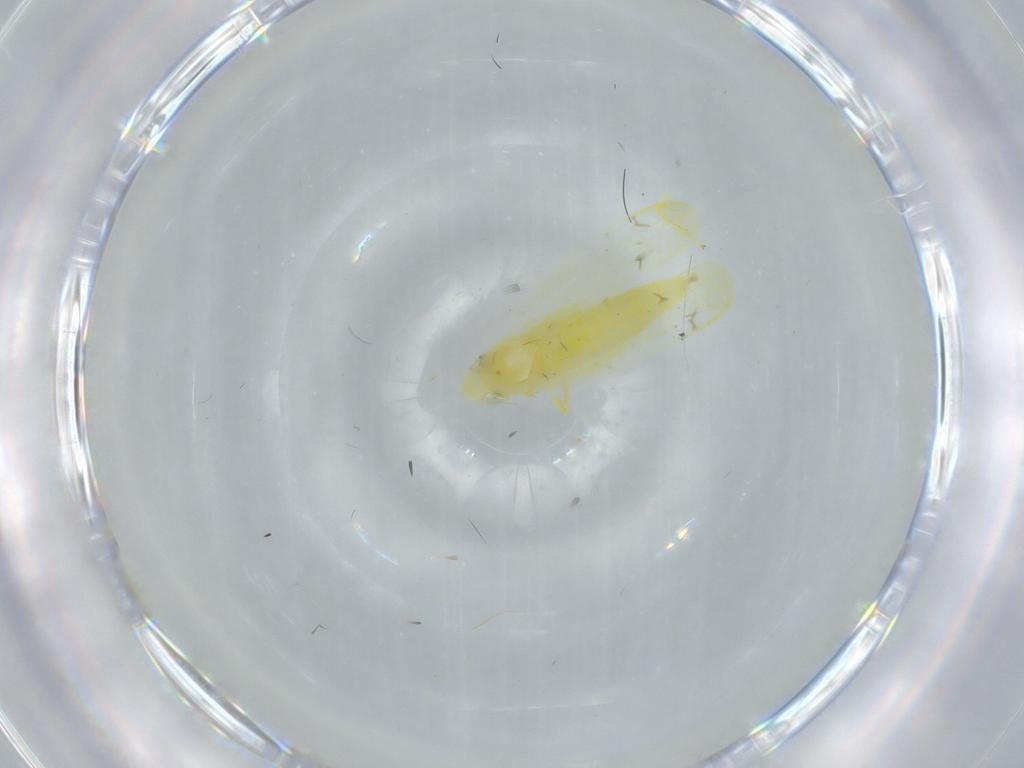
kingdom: Animalia
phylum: Arthropoda
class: Insecta
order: Hemiptera
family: Cicadellidae
